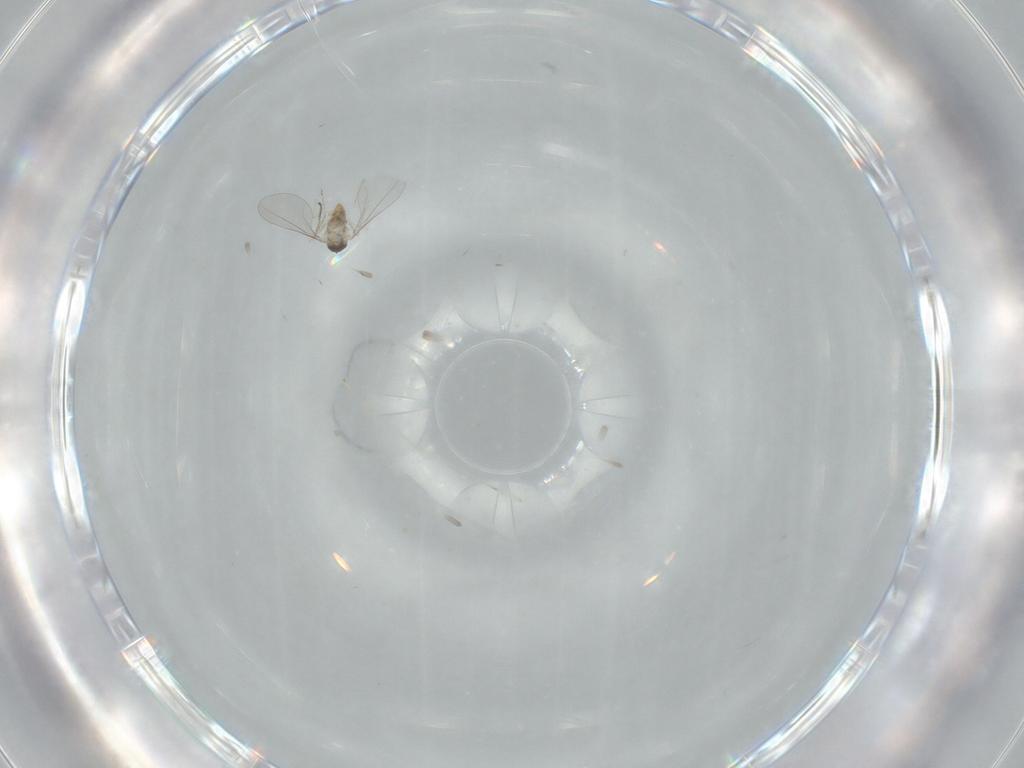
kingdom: Animalia
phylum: Arthropoda
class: Insecta
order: Diptera
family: Cecidomyiidae
